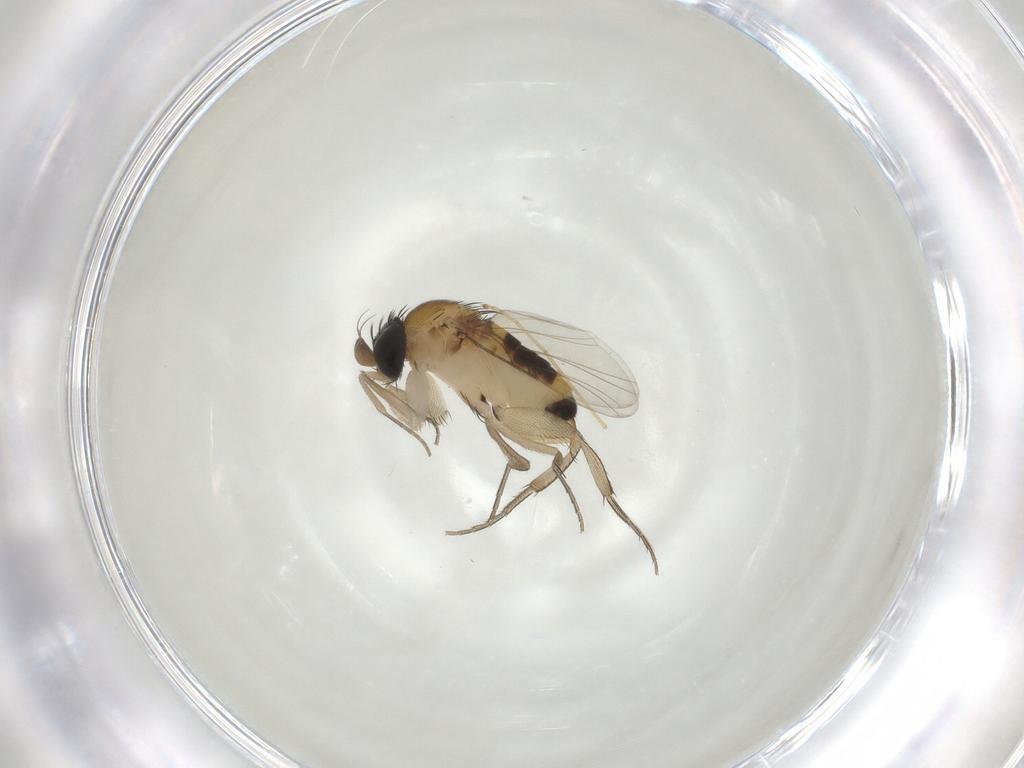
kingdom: Animalia
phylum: Arthropoda
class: Insecta
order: Diptera
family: Phoridae
